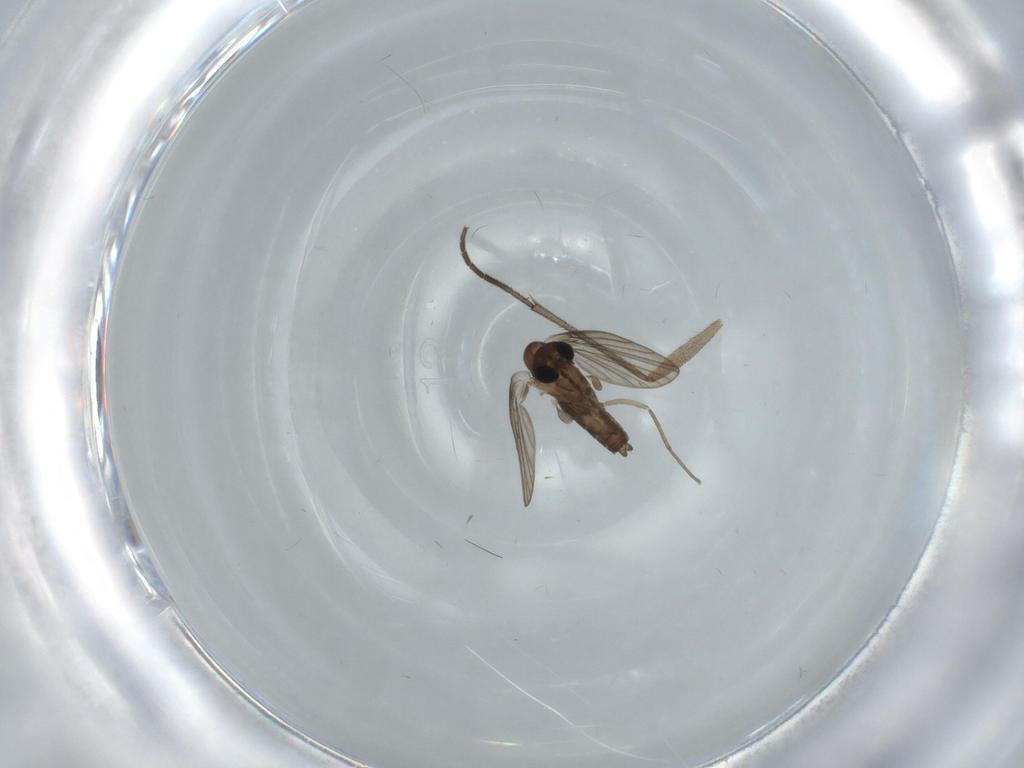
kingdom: Animalia
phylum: Arthropoda
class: Insecta
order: Diptera
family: Psychodidae
